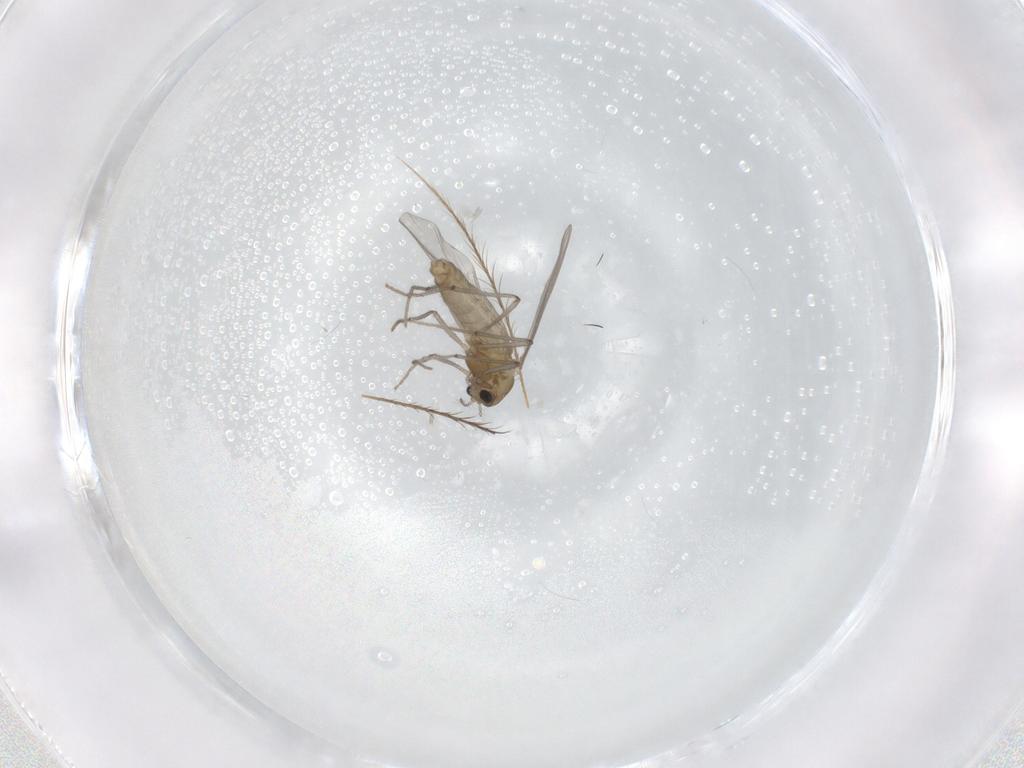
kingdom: Animalia
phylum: Arthropoda
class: Insecta
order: Diptera
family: Chironomidae
